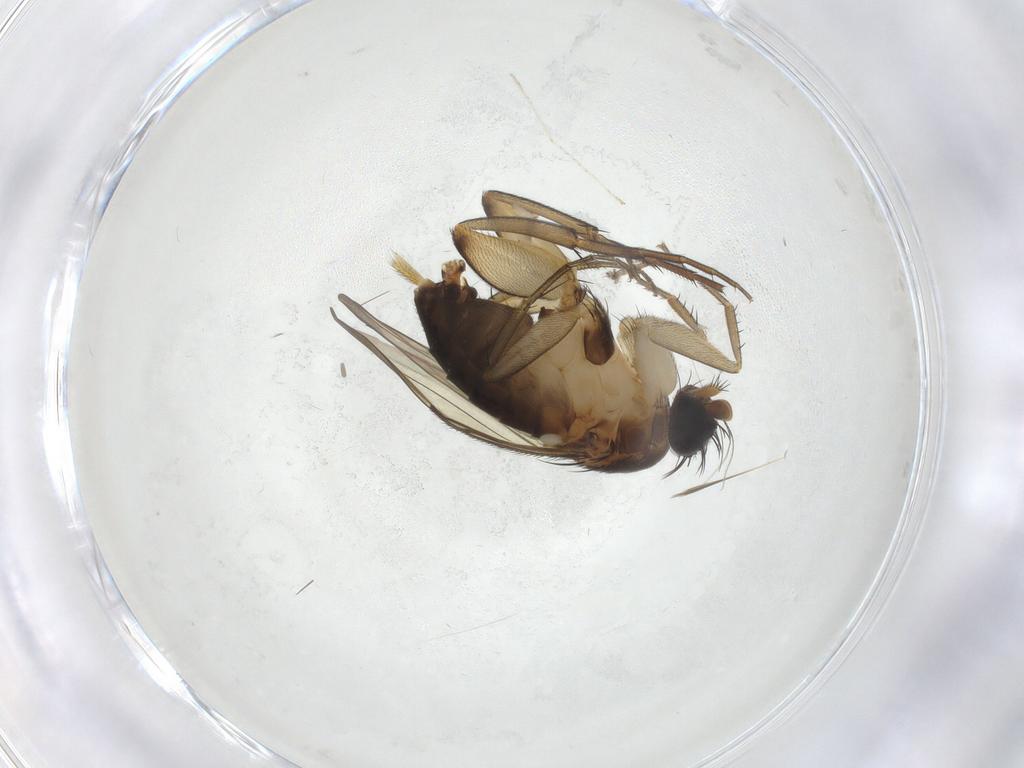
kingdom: Animalia
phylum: Arthropoda
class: Insecta
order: Diptera
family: Phoridae
